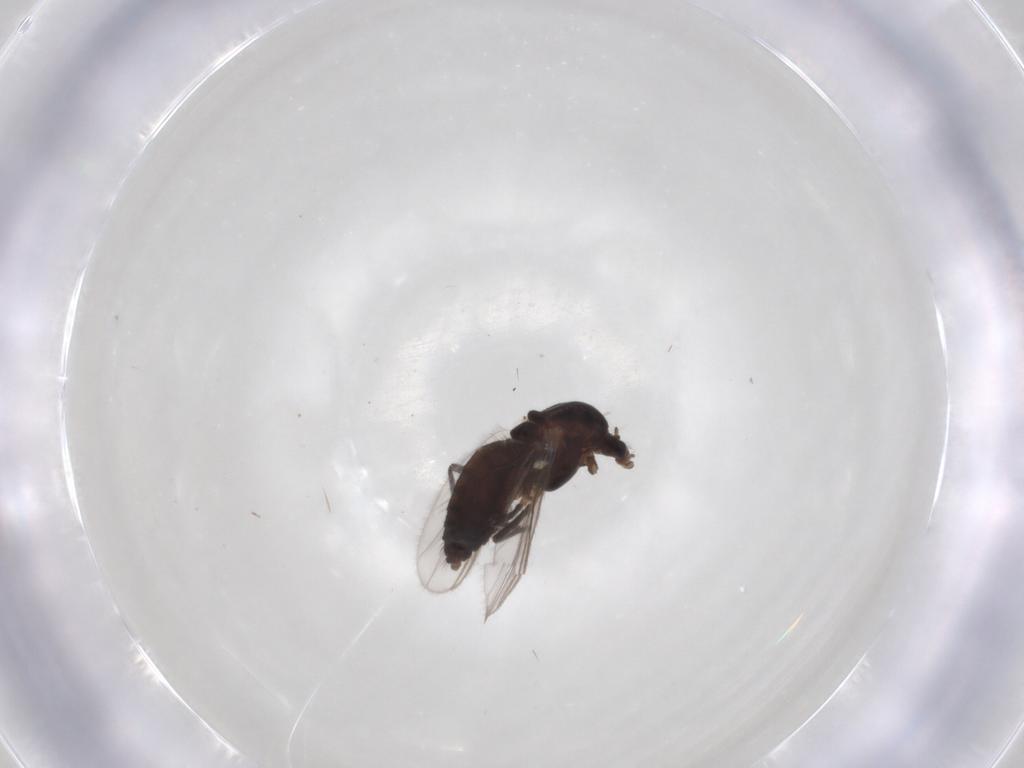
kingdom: Animalia
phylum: Arthropoda
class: Insecta
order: Diptera
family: Chironomidae
